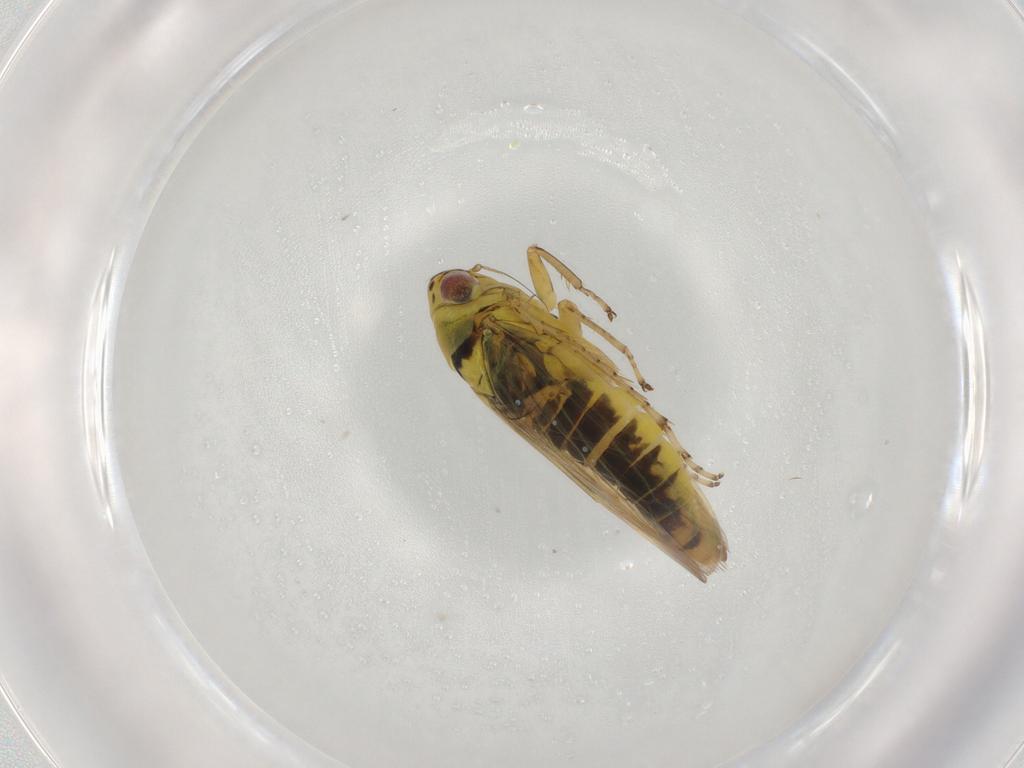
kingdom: Animalia
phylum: Arthropoda
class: Insecta
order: Hemiptera
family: Cicadellidae
